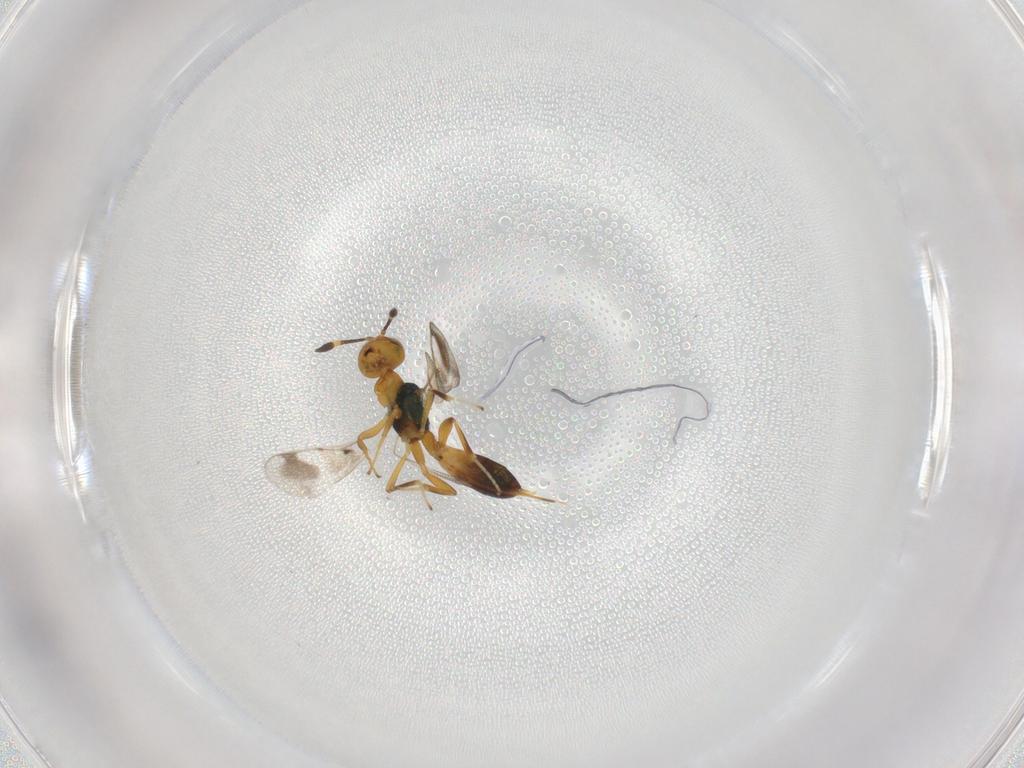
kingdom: Animalia
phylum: Arthropoda
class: Insecta
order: Hymenoptera
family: Eupelmidae
